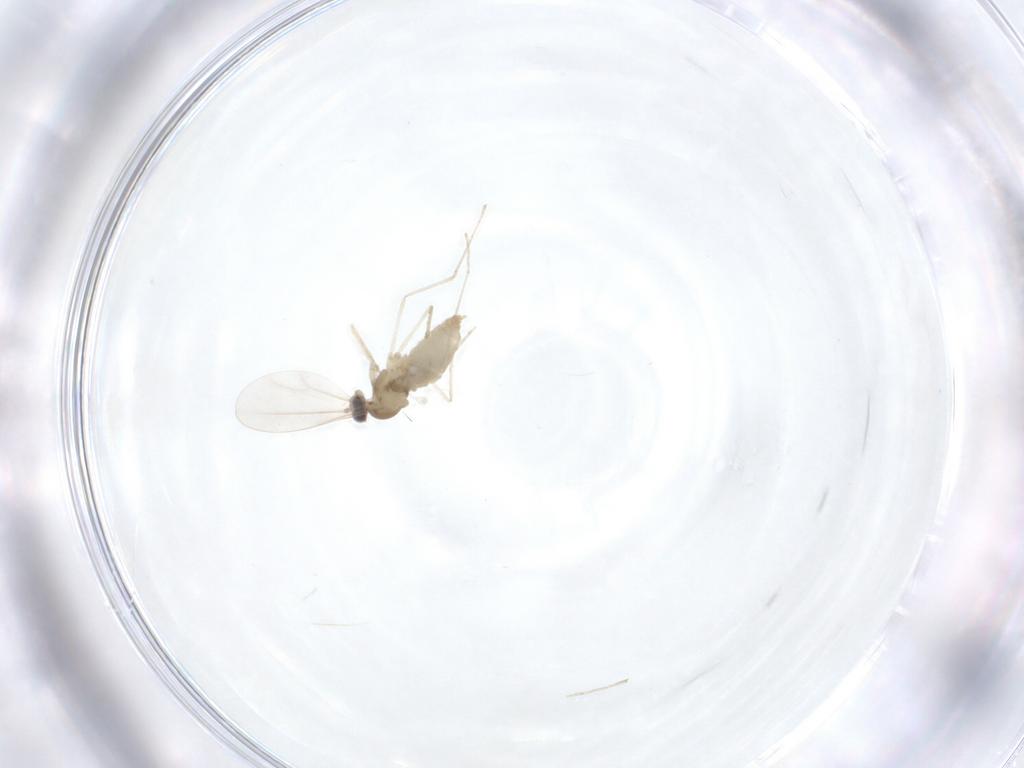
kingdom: Animalia
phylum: Arthropoda
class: Insecta
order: Diptera
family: Cecidomyiidae
